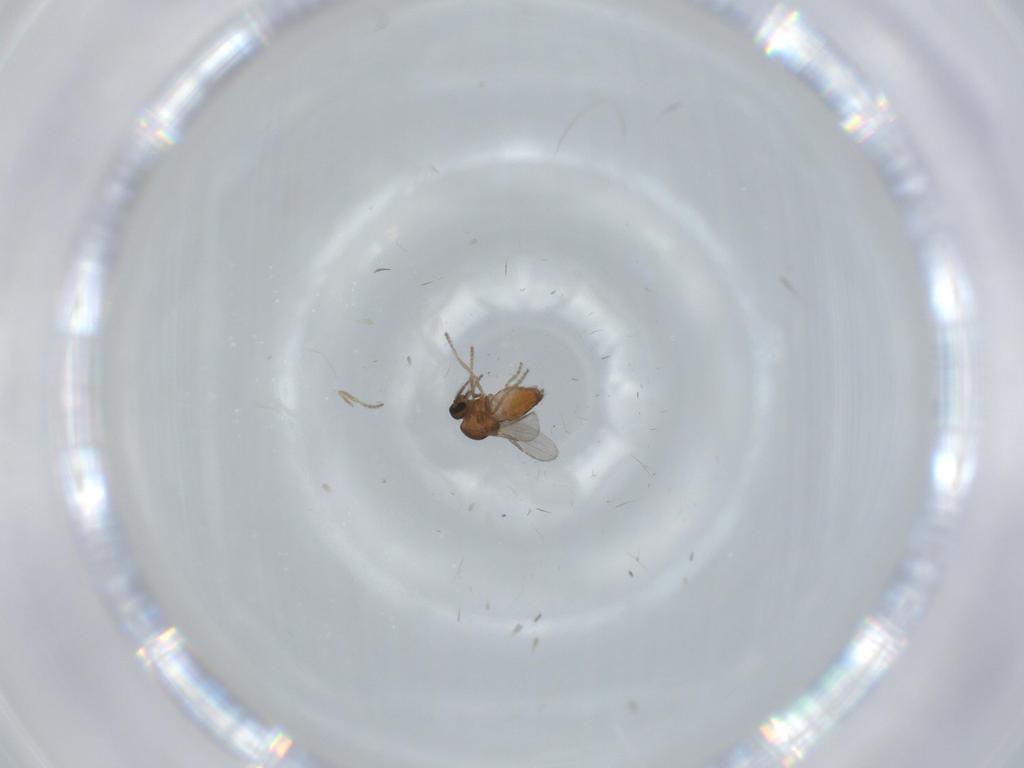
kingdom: Animalia
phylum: Arthropoda
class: Insecta
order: Diptera
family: Ceratopogonidae
